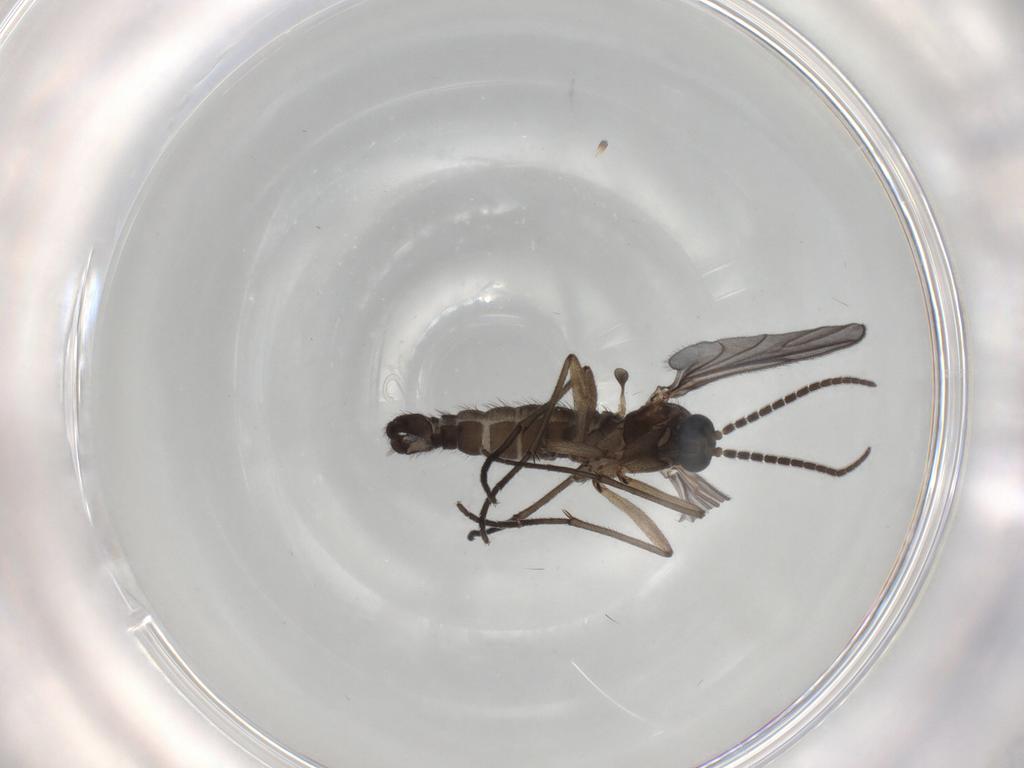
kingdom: Animalia
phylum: Arthropoda
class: Insecta
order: Diptera
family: Sciaridae
